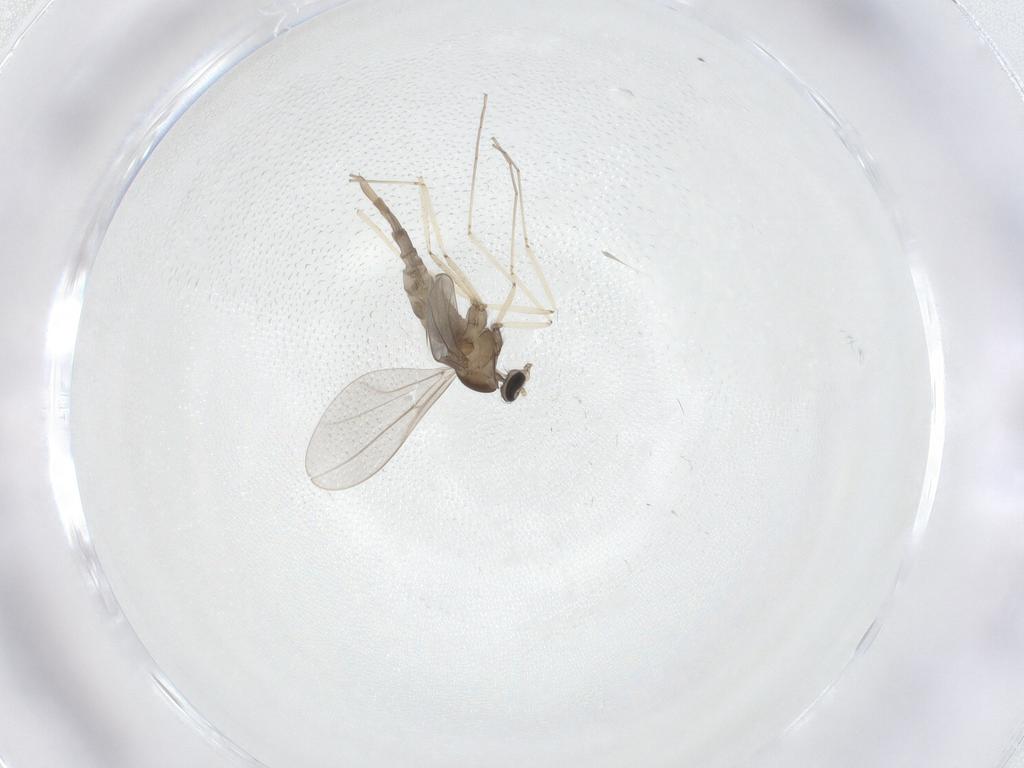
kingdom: Animalia
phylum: Arthropoda
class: Insecta
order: Diptera
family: Cecidomyiidae
